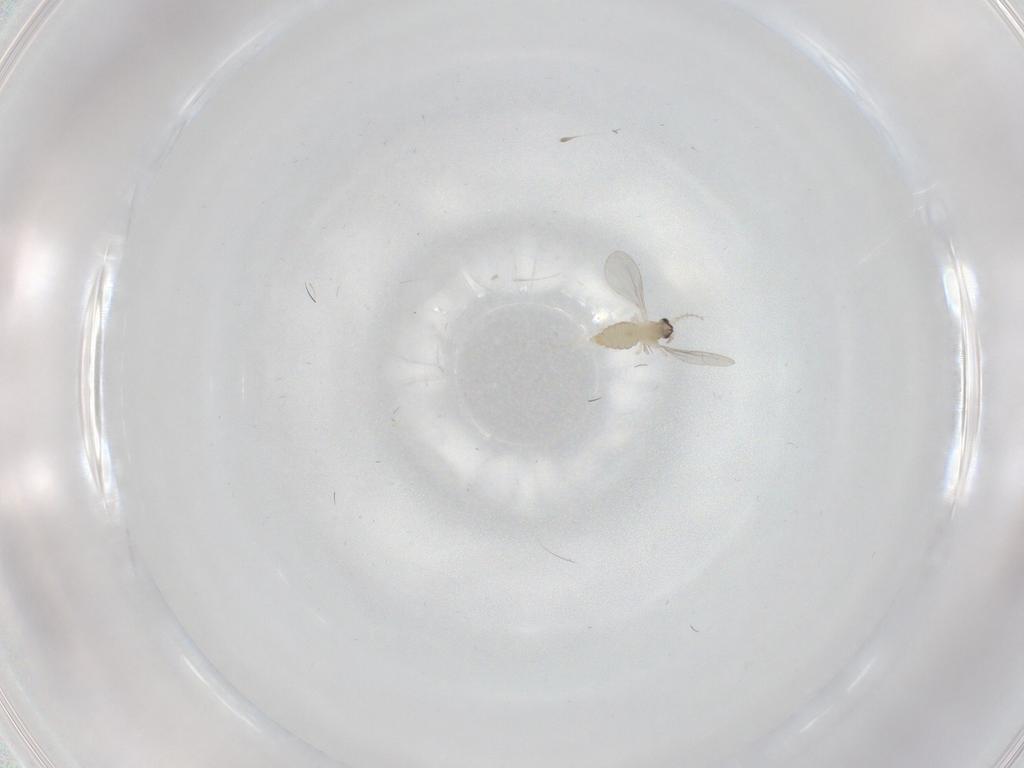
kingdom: Animalia
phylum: Arthropoda
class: Insecta
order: Diptera
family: Cecidomyiidae
